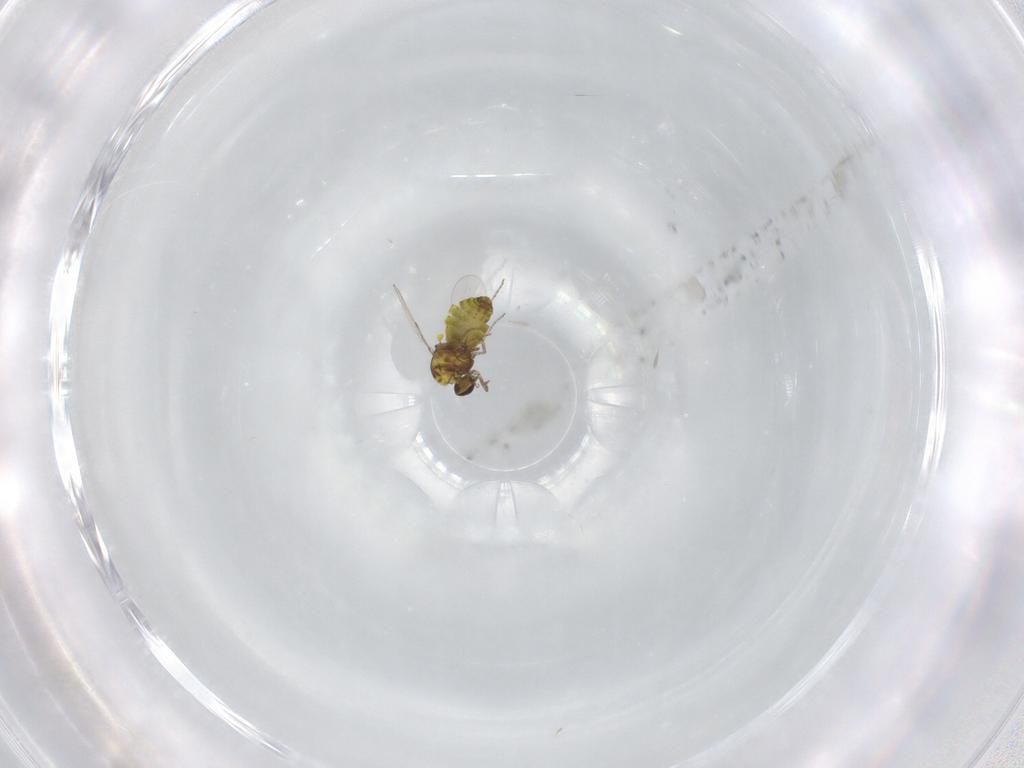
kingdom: Animalia
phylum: Arthropoda
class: Insecta
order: Diptera
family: Ceratopogonidae
